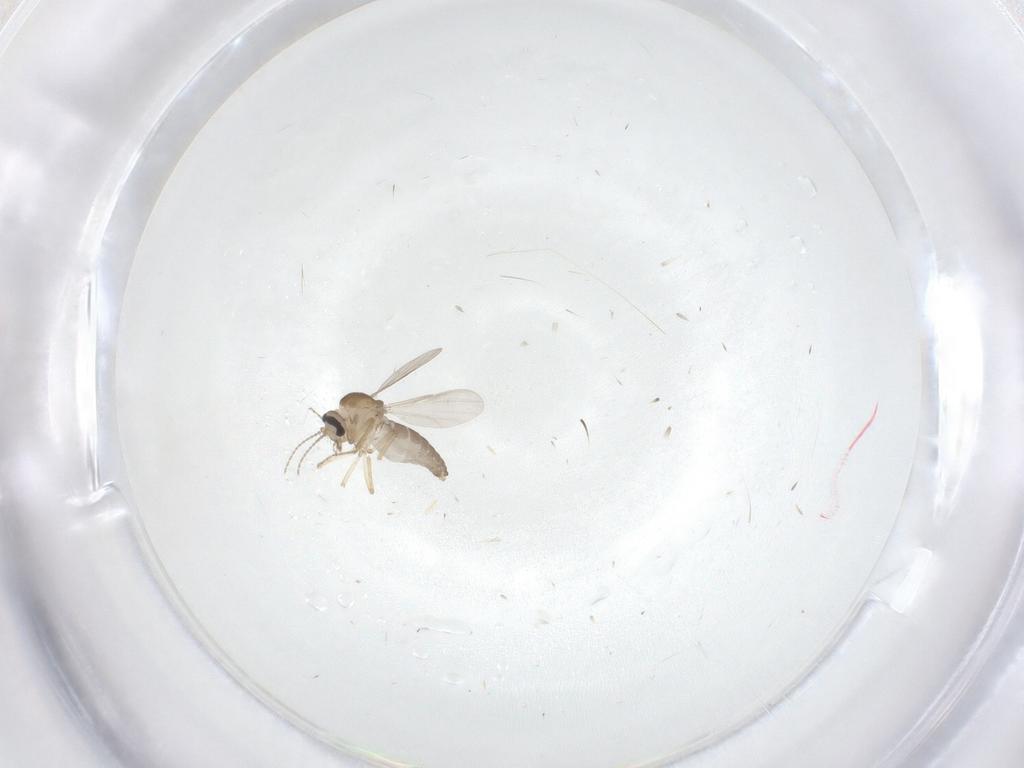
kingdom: Animalia
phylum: Arthropoda
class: Insecta
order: Diptera
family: Ceratopogonidae
